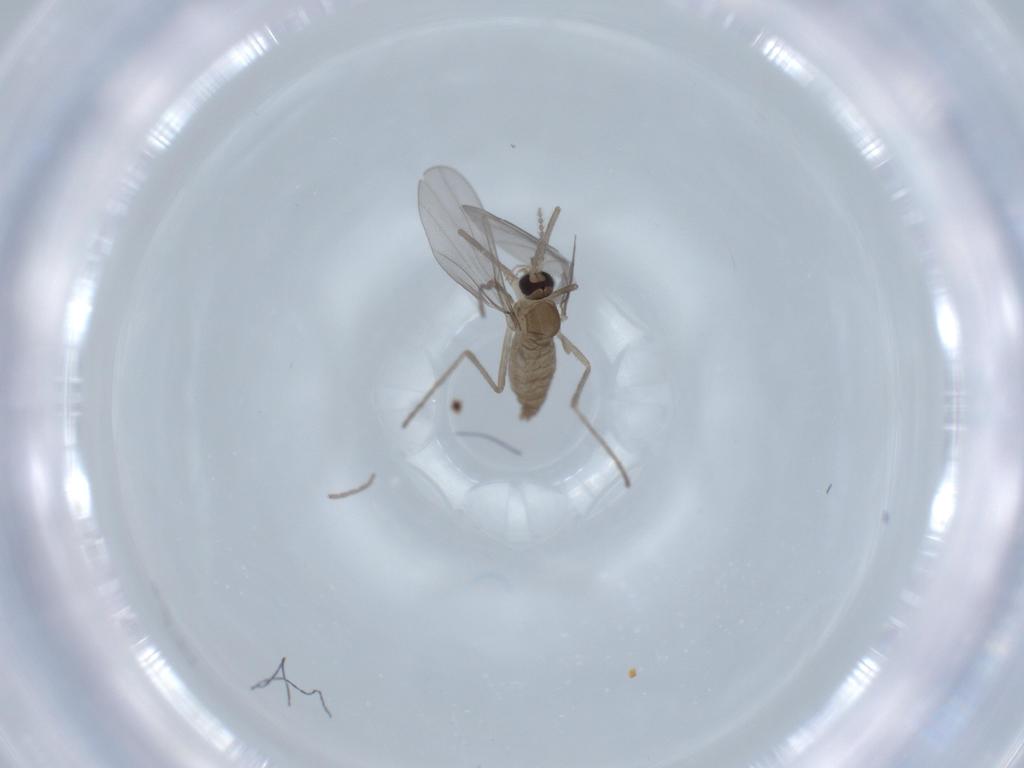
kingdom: Animalia
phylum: Arthropoda
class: Insecta
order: Diptera
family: Cecidomyiidae
